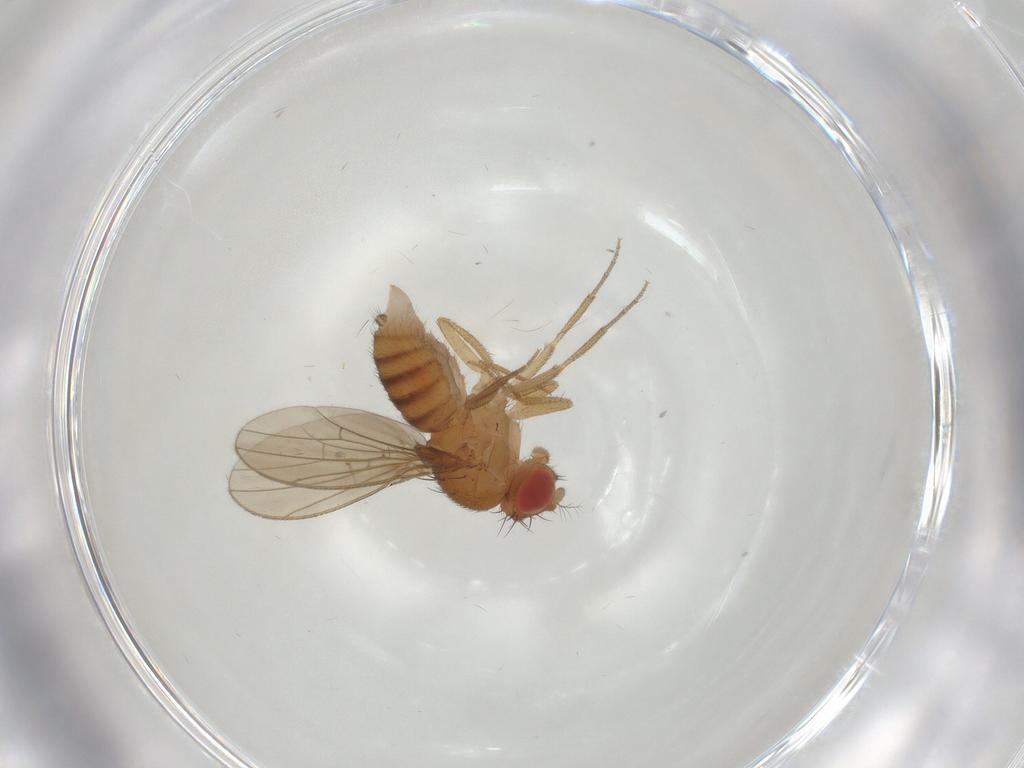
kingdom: Animalia
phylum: Arthropoda
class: Insecta
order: Diptera
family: Drosophilidae
